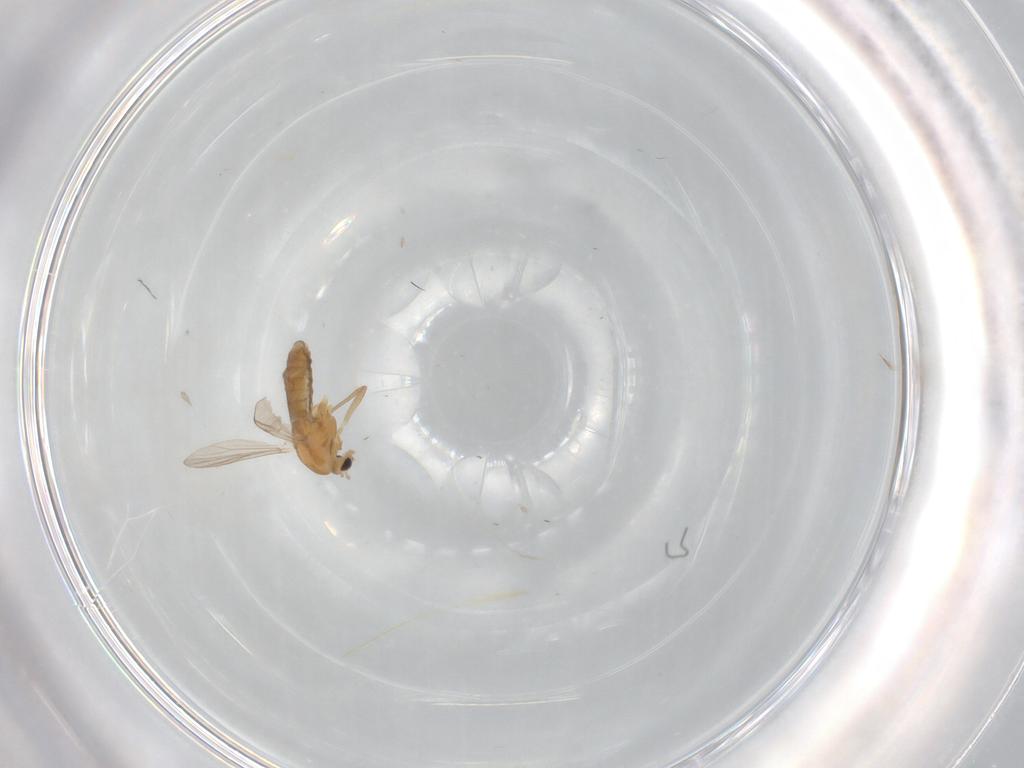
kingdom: Animalia
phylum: Arthropoda
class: Insecta
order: Diptera
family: Chironomidae
